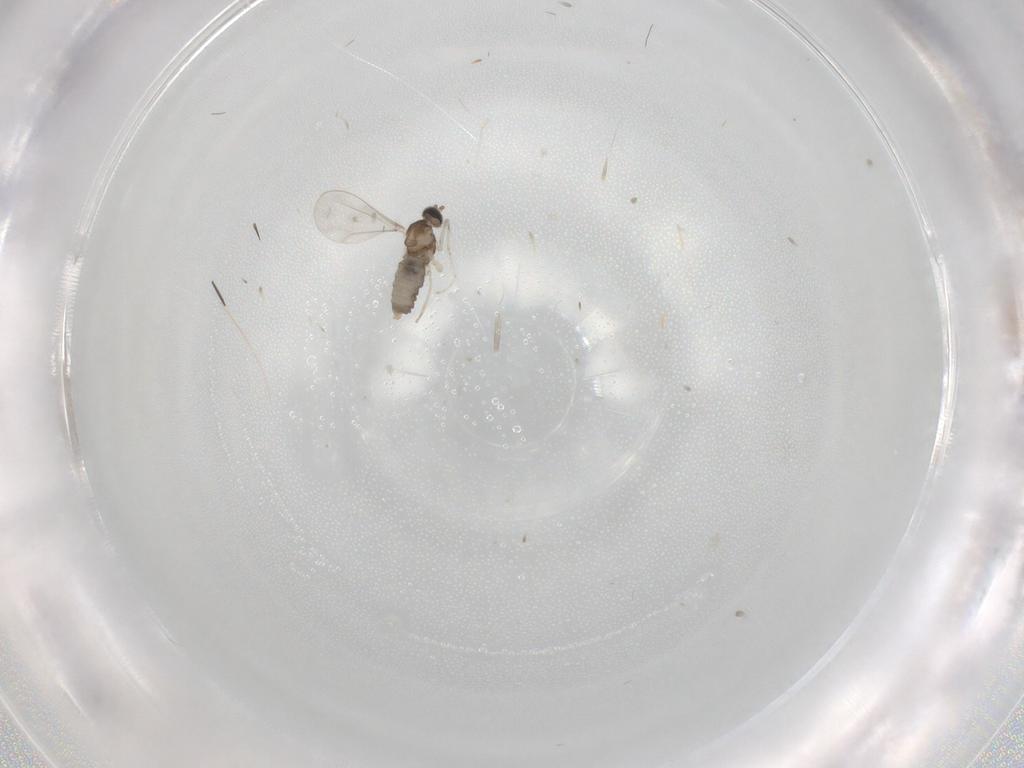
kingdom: Animalia
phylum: Arthropoda
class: Insecta
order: Diptera
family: Cecidomyiidae
